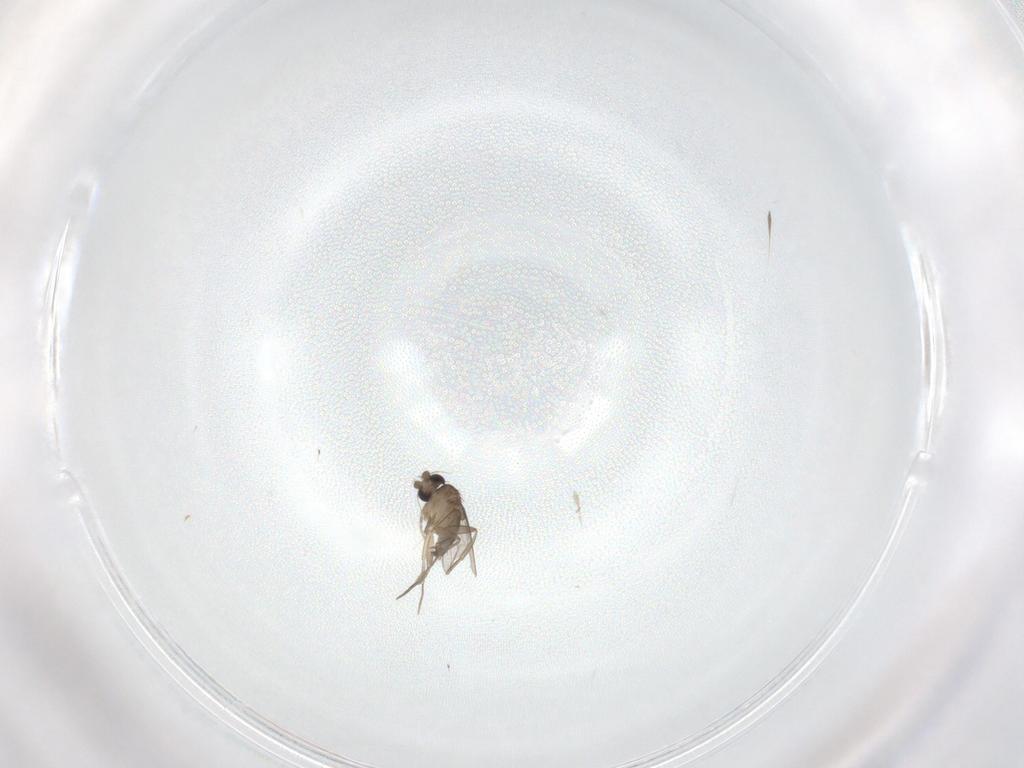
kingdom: Animalia
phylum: Arthropoda
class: Insecta
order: Diptera
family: Phoridae
